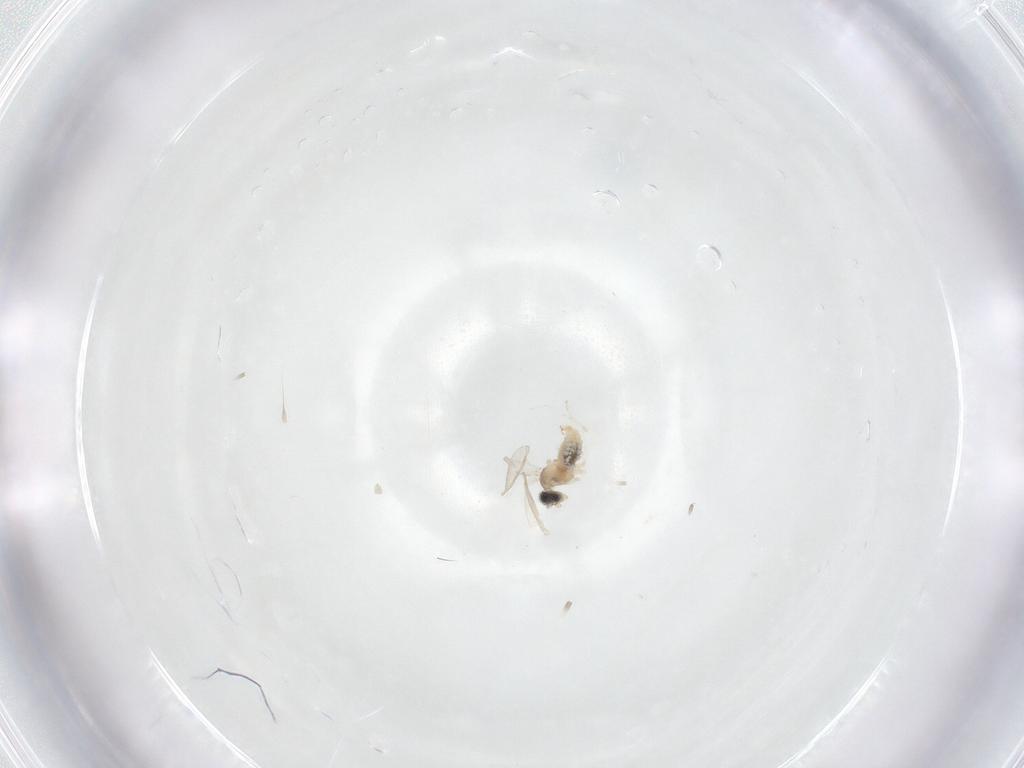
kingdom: Animalia
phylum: Arthropoda
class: Insecta
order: Diptera
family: Cecidomyiidae
